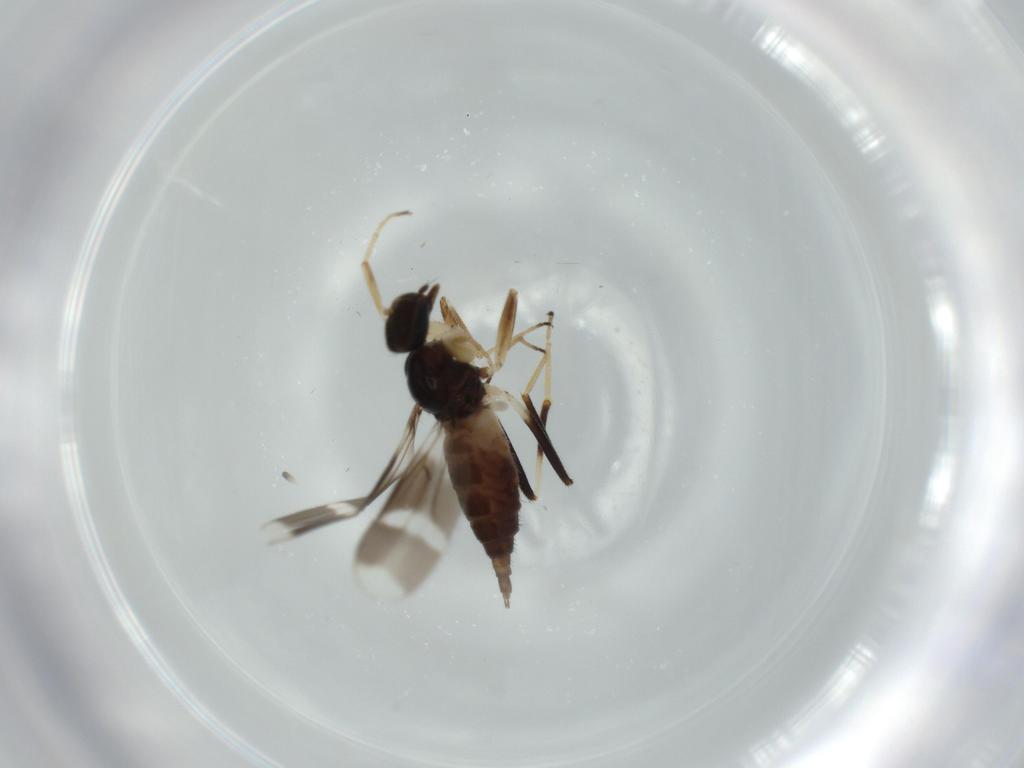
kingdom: Animalia
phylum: Arthropoda
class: Insecta
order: Diptera
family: Hybotidae
